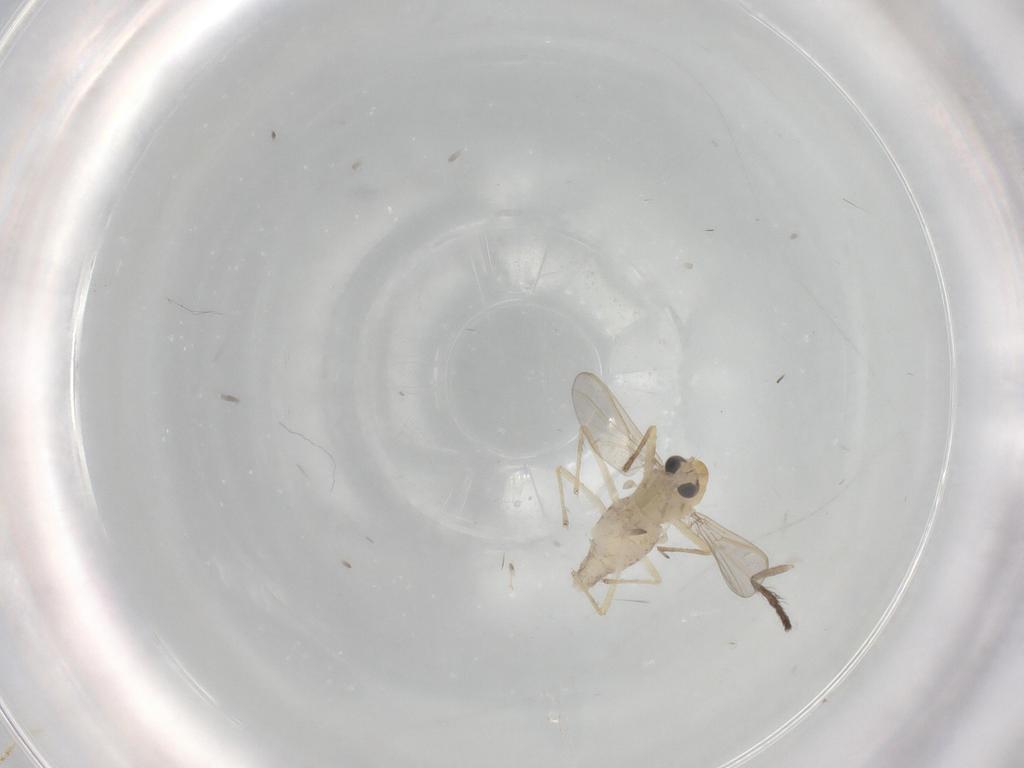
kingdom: Animalia
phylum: Arthropoda
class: Insecta
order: Diptera
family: Chironomidae
